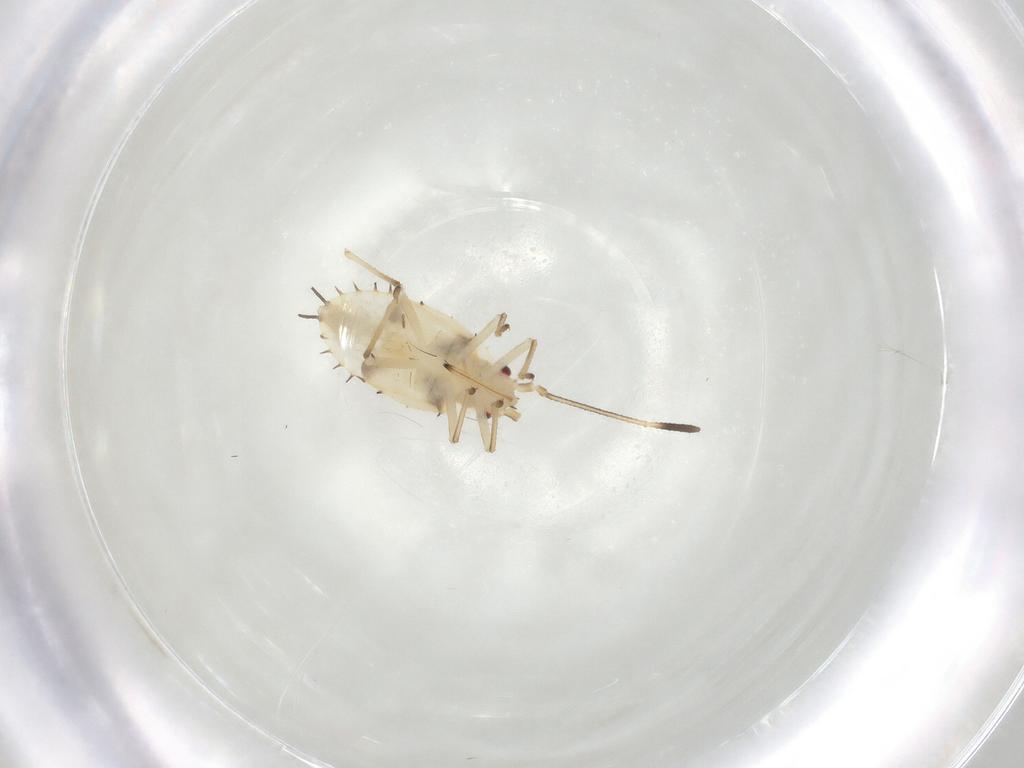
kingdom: Animalia
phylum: Arthropoda
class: Insecta
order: Hemiptera
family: Tingidae
